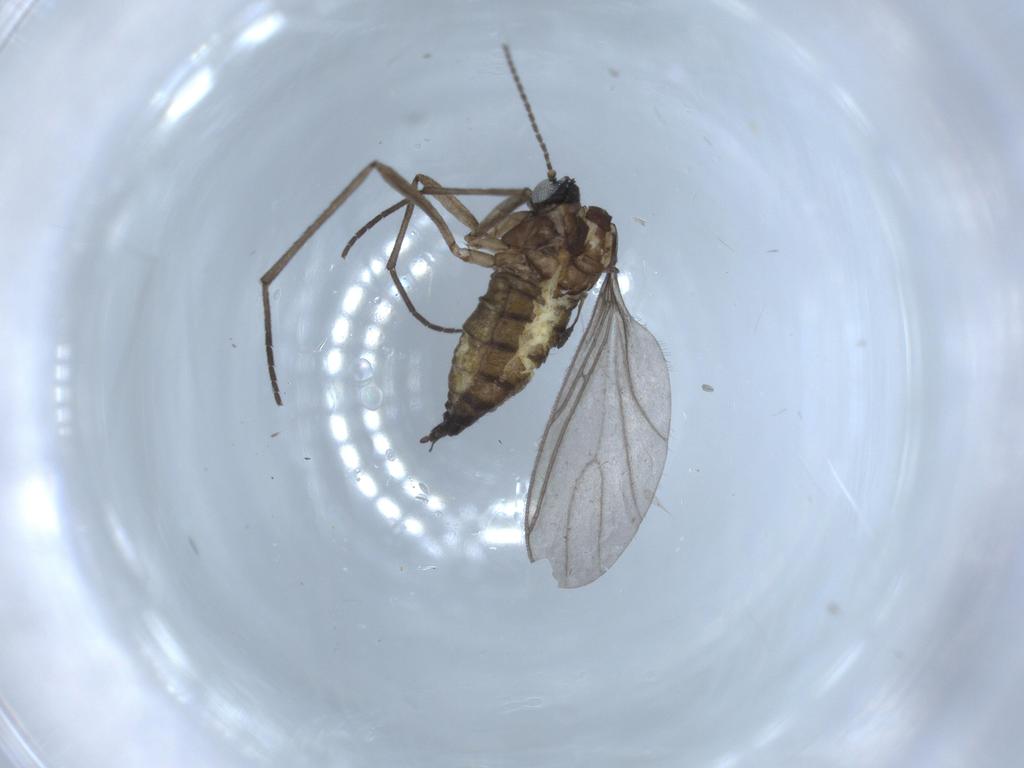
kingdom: Animalia
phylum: Arthropoda
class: Insecta
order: Diptera
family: Sciaridae
